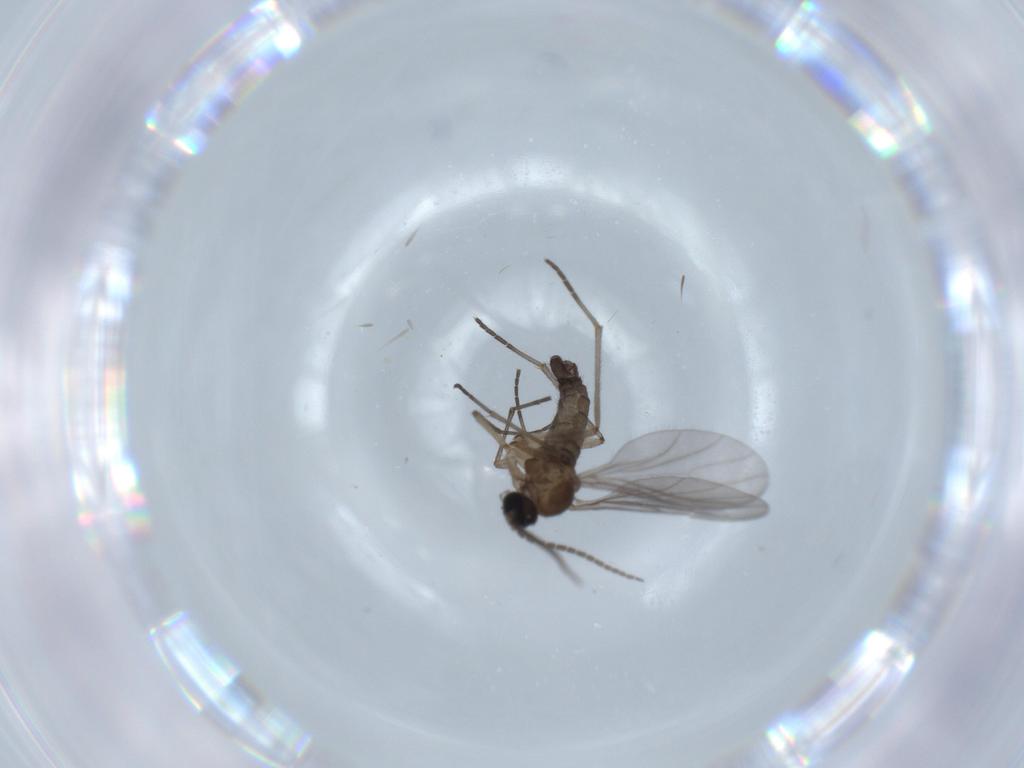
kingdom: Animalia
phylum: Arthropoda
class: Insecta
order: Diptera
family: Sciaridae
